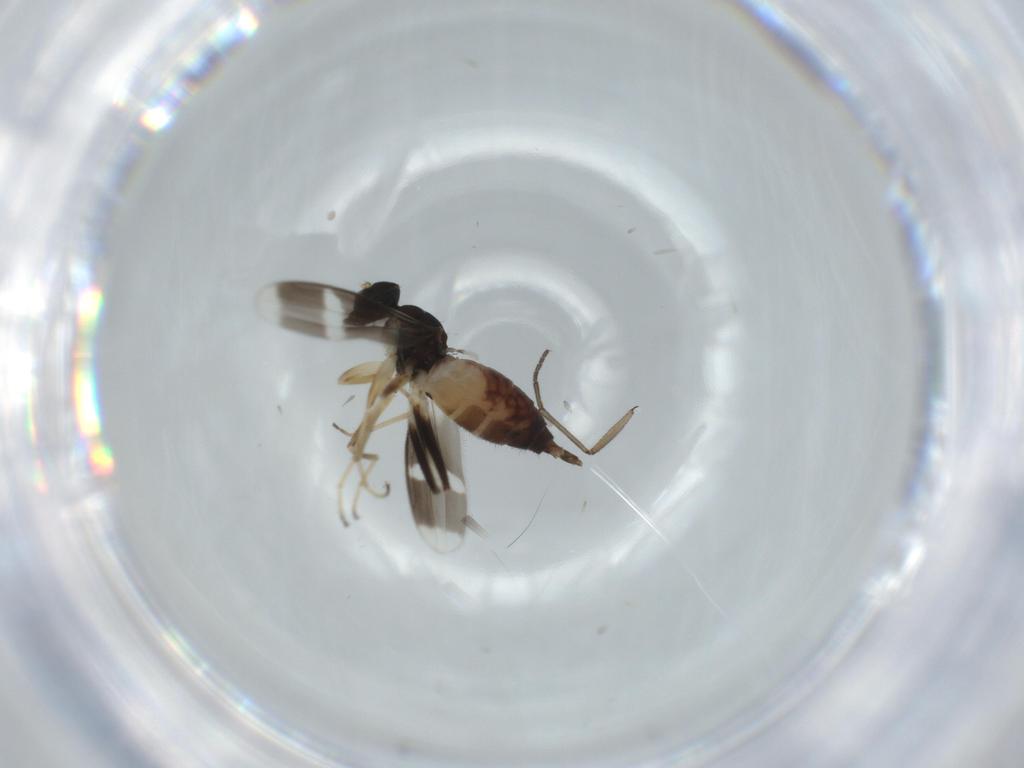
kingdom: Animalia
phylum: Arthropoda
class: Insecta
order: Diptera
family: Sciaridae
